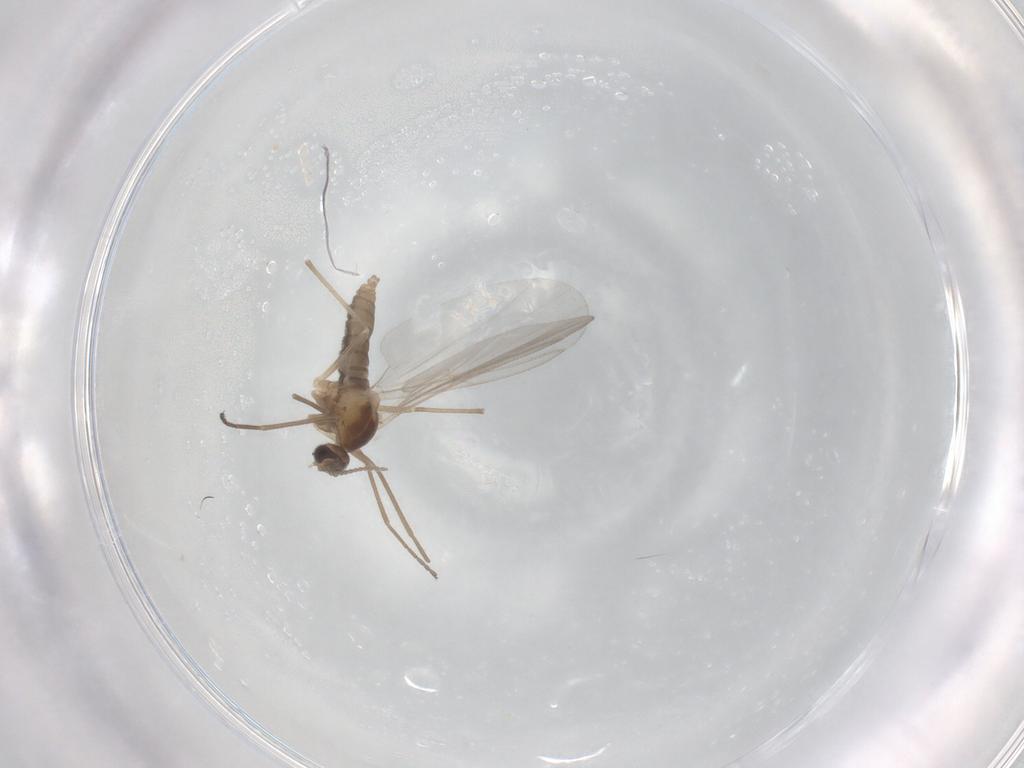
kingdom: Animalia
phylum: Arthropoda
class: Insecta
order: Diptera
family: Cecidomyiidae
